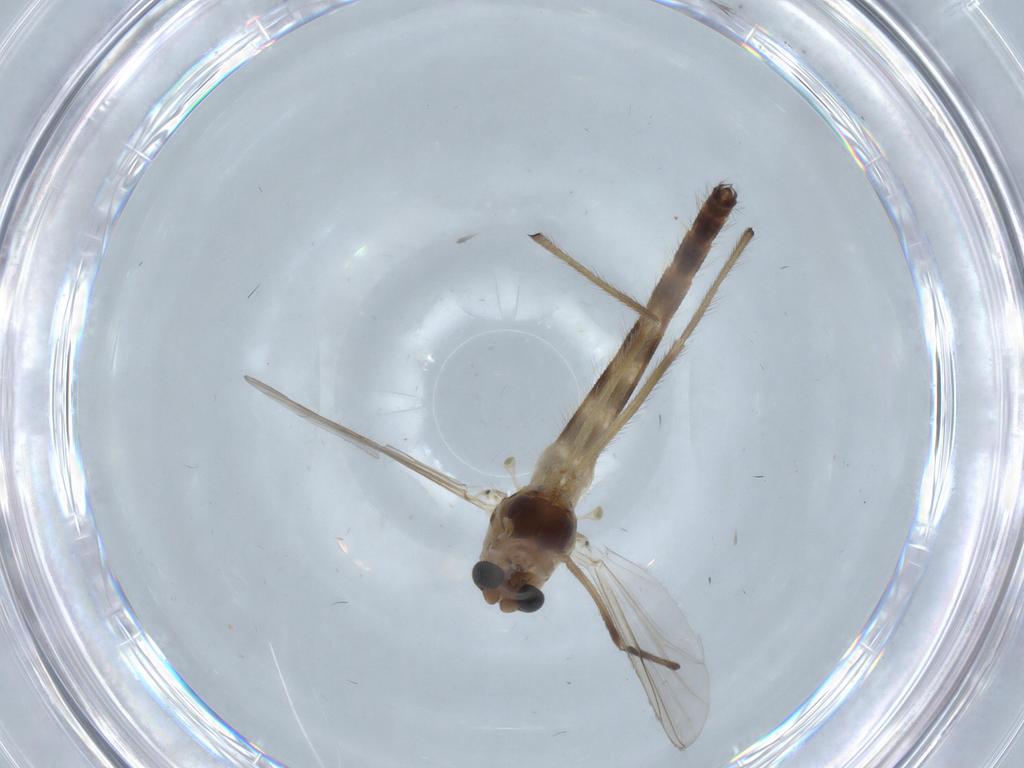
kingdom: Animalia
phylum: Arthropoda
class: Insecta
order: Diptera
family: Chironomidae
